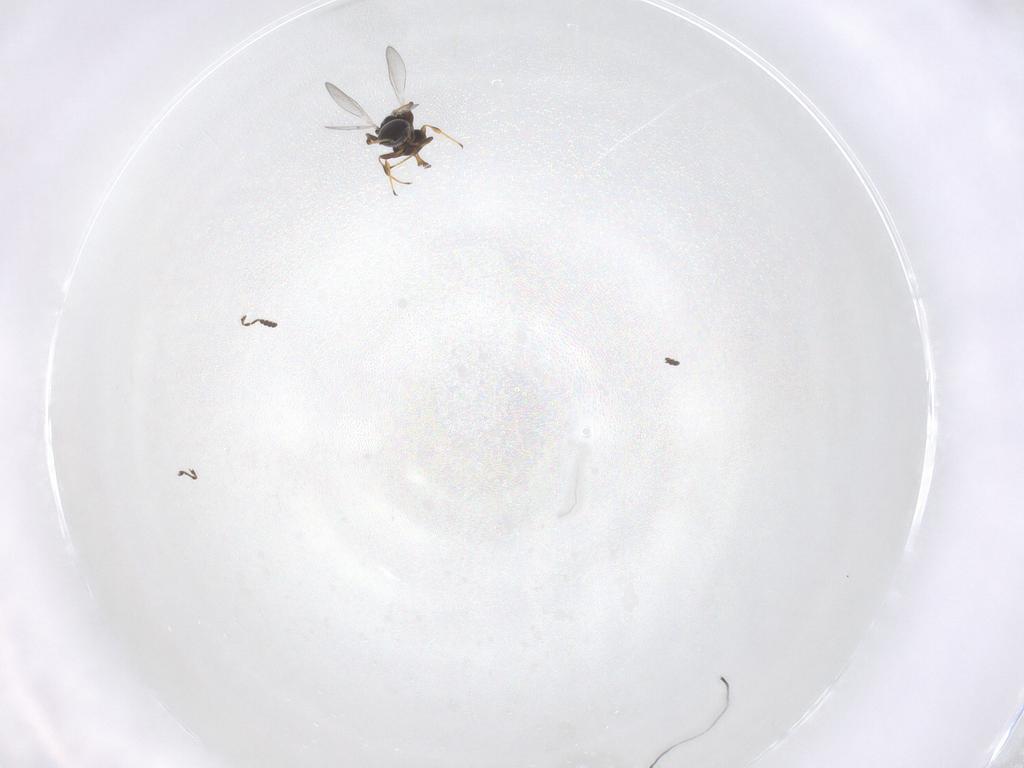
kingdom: Animalia
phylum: Arthropoda
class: Insecta
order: Hymenoptera
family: Platygastridae
